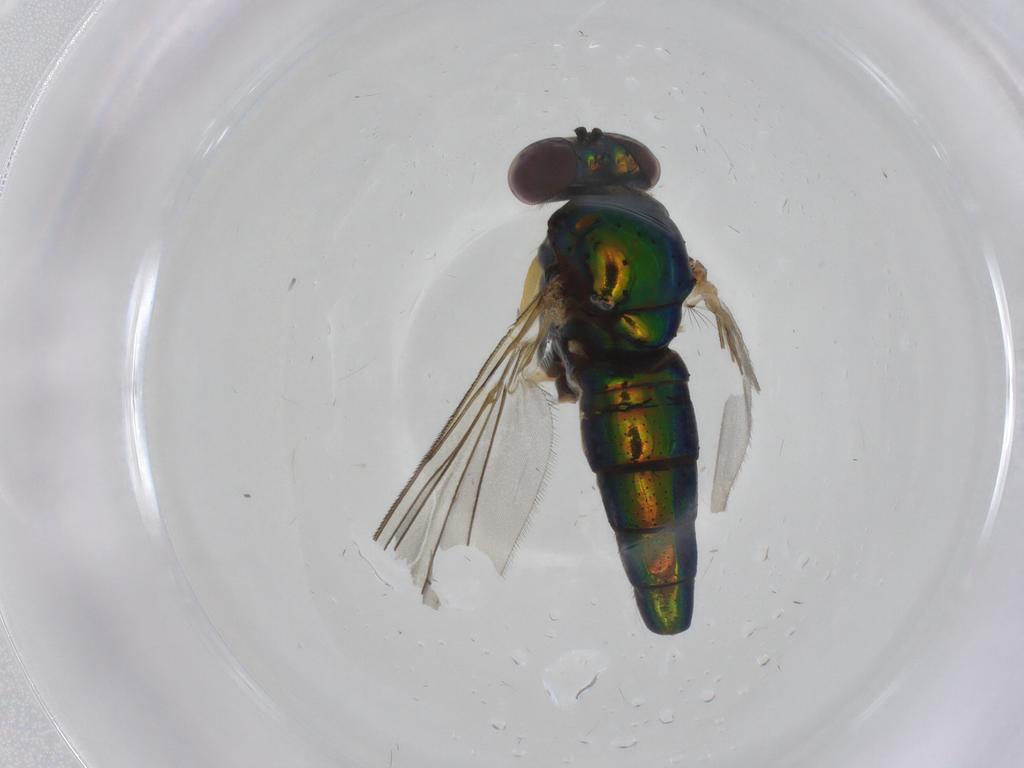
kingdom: Animalia
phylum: Arthropoda
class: Insecta
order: Diptera
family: Dolichopodidae
